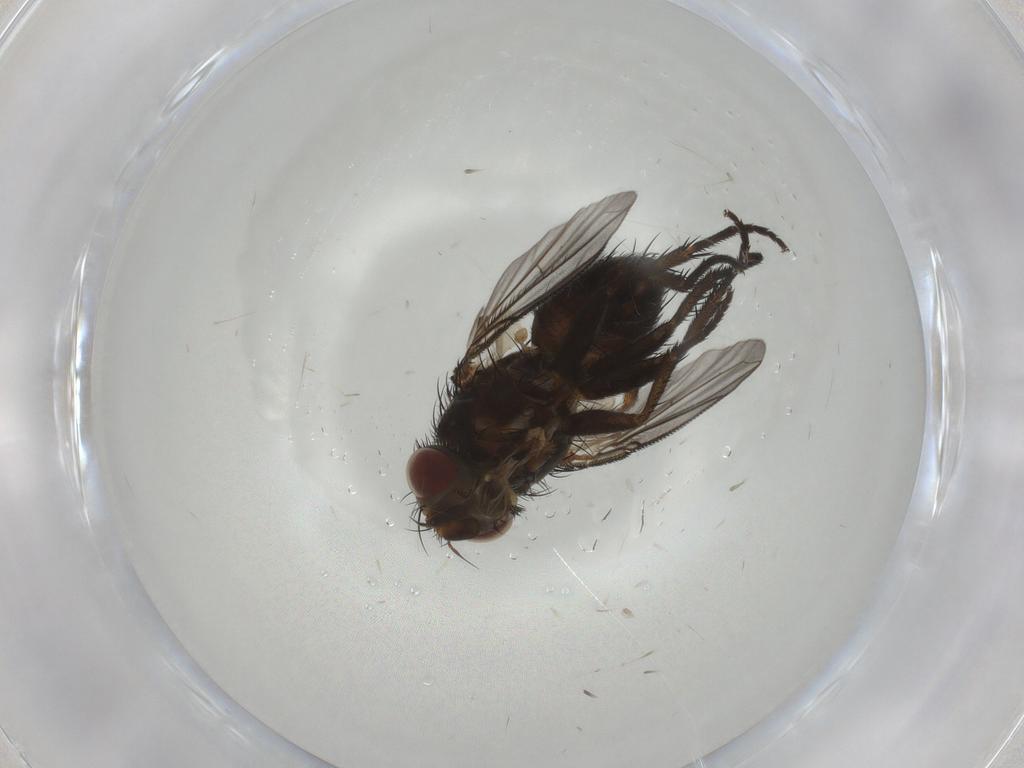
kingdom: Animalia
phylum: Arthropoda
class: Insecta
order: Diptera
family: Tachinidae
